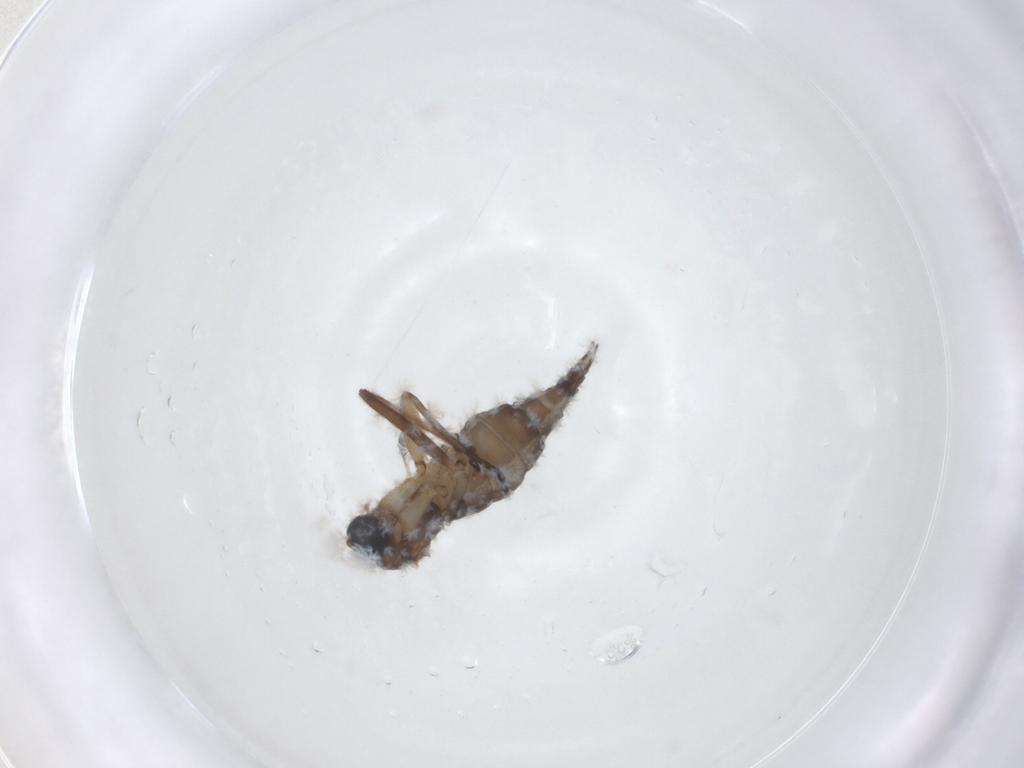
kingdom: Animalia
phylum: Arthropoda
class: Insecta
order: Diptera
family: Sciaridae
